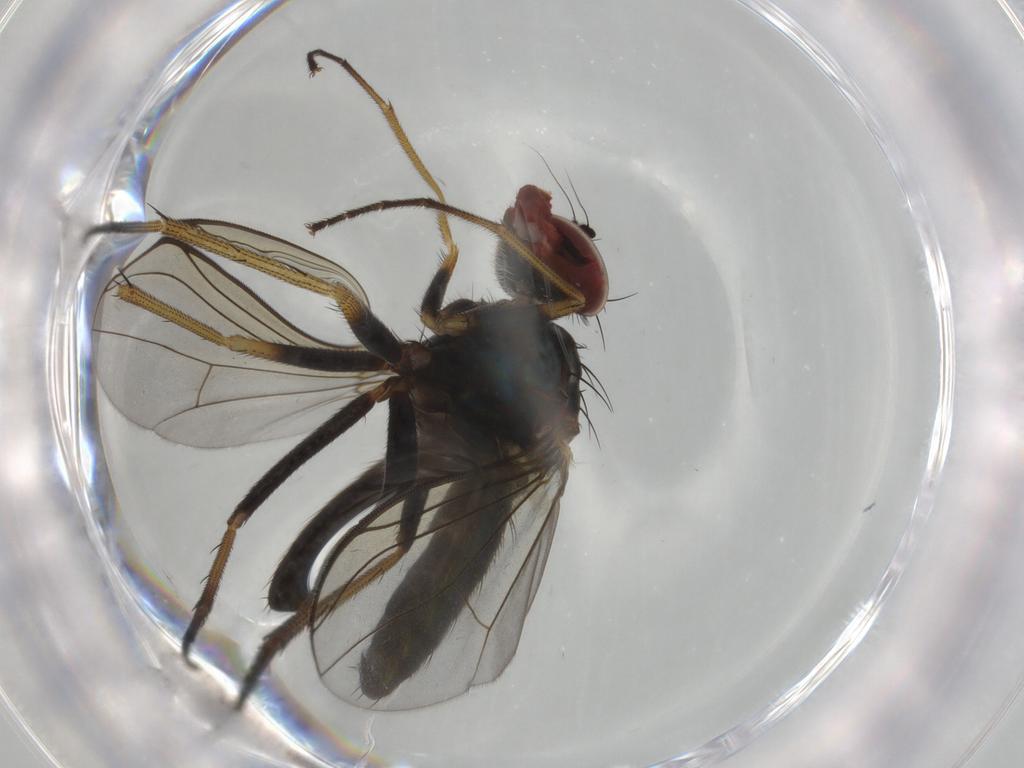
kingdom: Animalia
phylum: Arthropoda
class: Insecta
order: Diptera
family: Dolichopodidae
